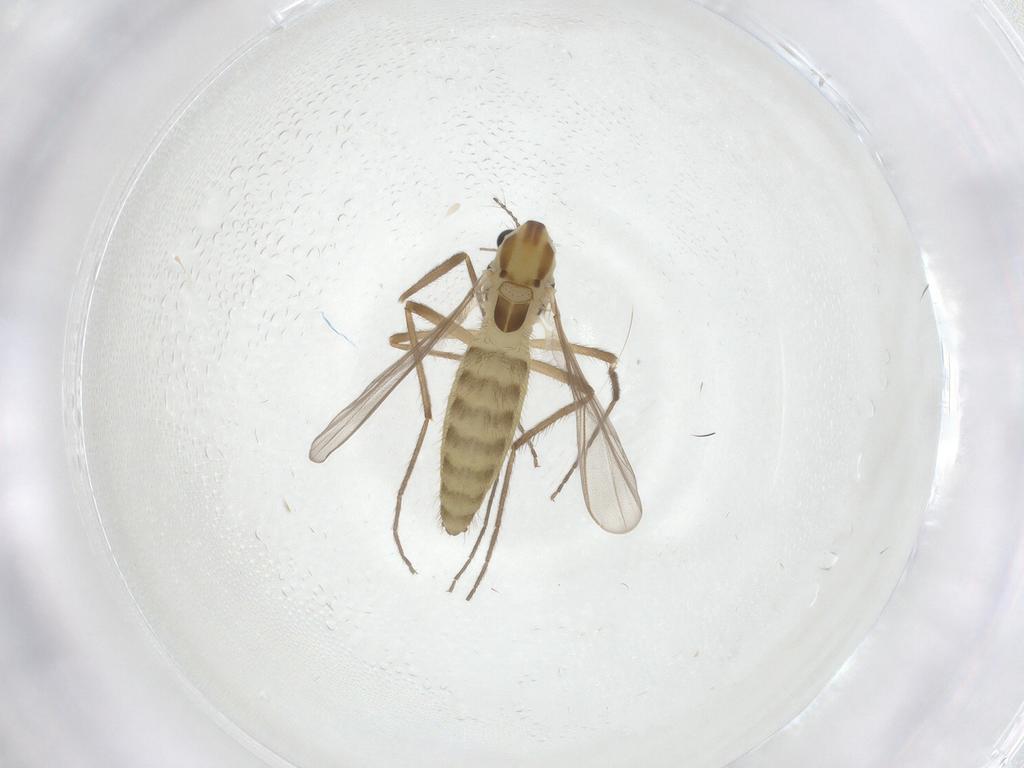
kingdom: Animalia
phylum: Arthropoda
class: Insecta
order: Diptera
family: Chironomidae
